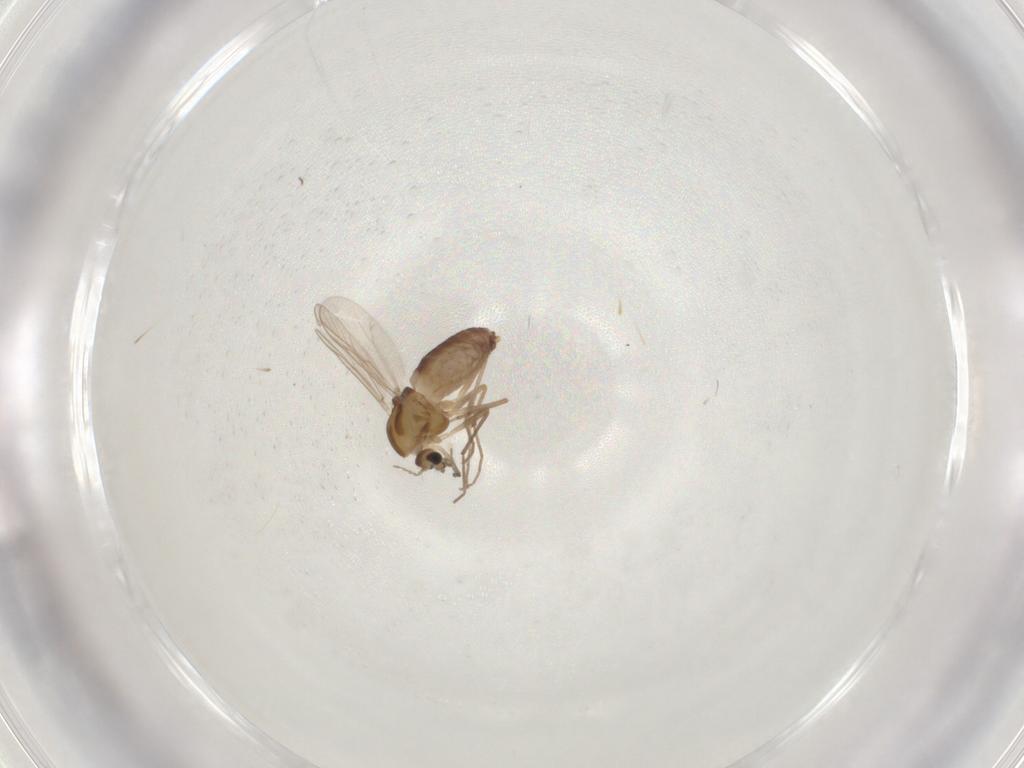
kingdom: Animalia
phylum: Arthropoda
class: Insecta
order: Diptera
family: Chironomidae
